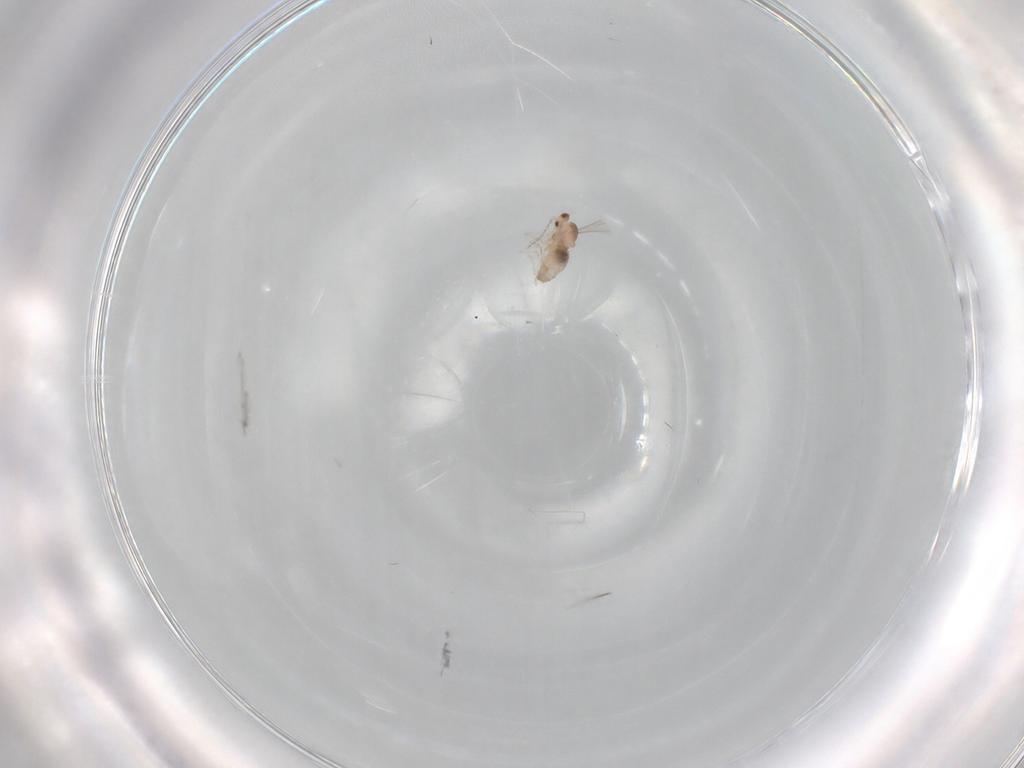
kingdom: Animalia
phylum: Arthropoda
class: Insecta
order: Diptera
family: Cecidomyiidae
